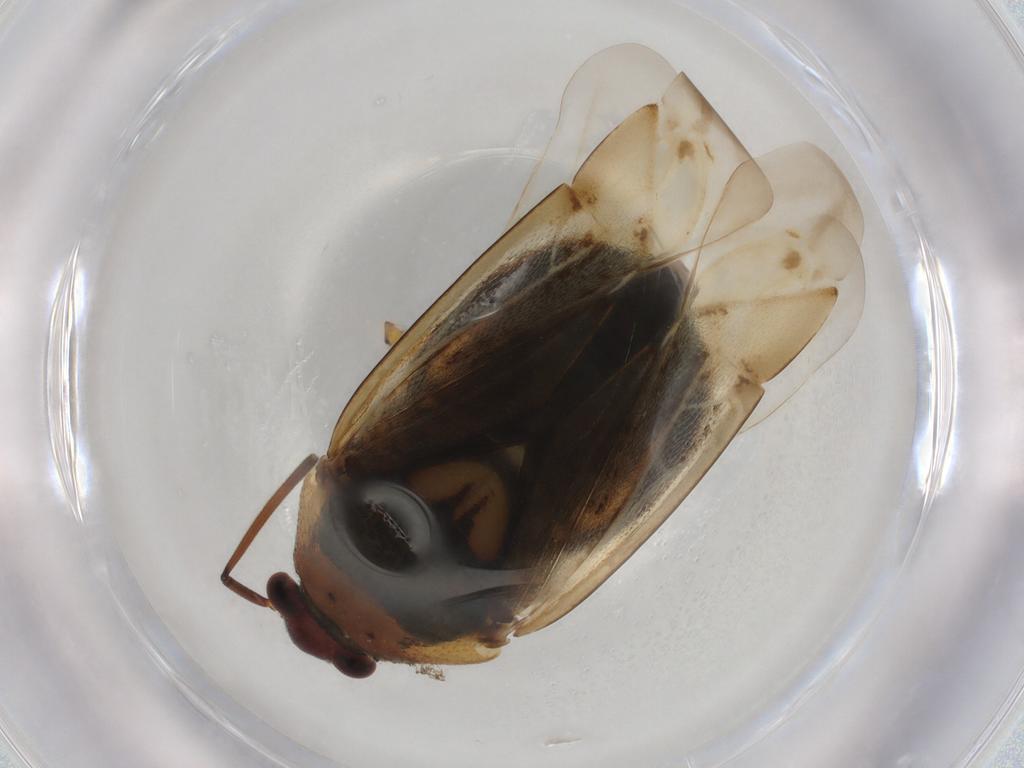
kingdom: Animalia
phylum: Arthropoda
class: Insecta
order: Hemiptera
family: Miridae
